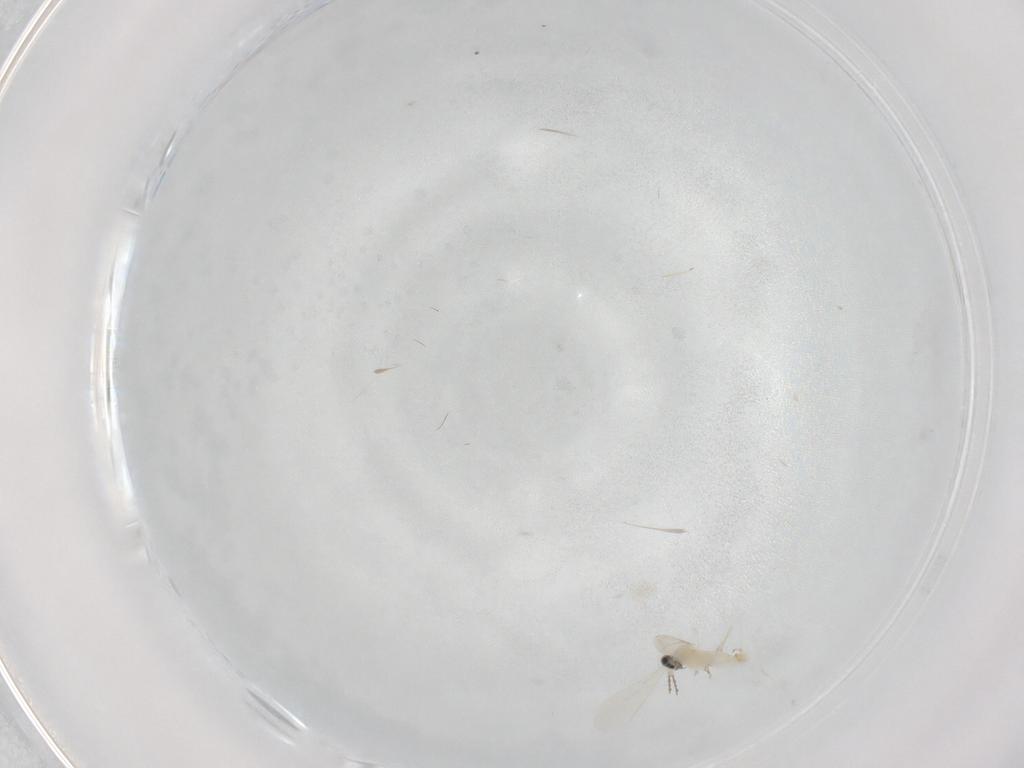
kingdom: Animalia
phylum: Arthropoda
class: Insecta
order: Diptera
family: Cecidomyiidae
